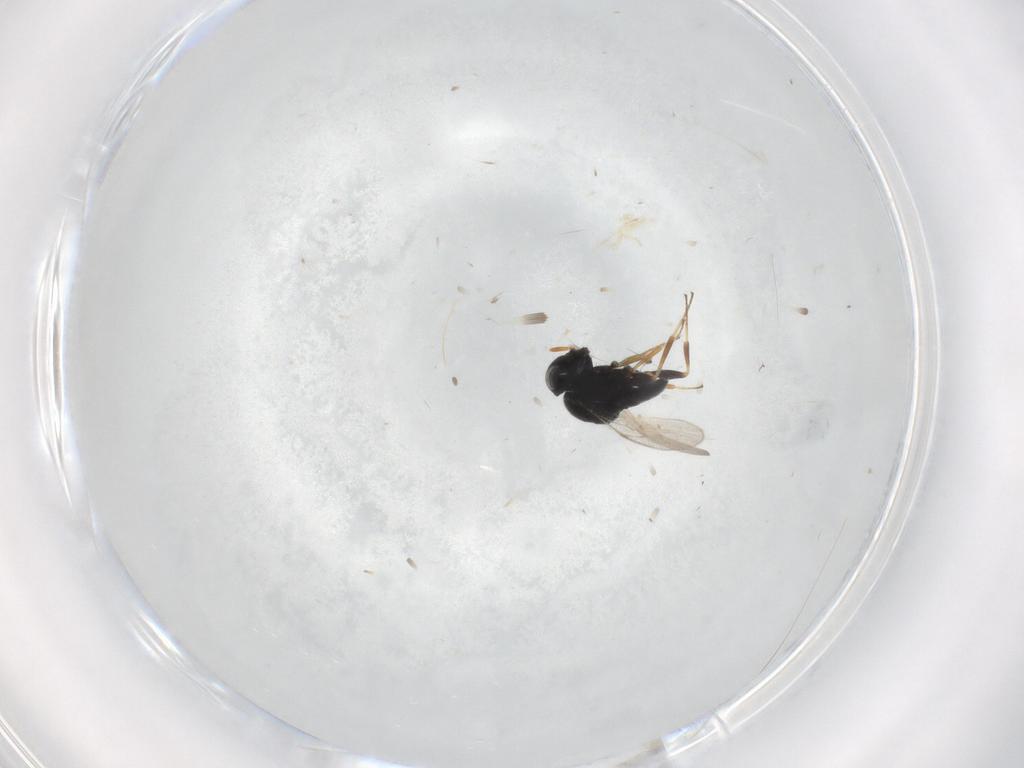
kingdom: Animalia
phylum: Arthropoda
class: Insecta
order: Coleoptera
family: Curculionidae
